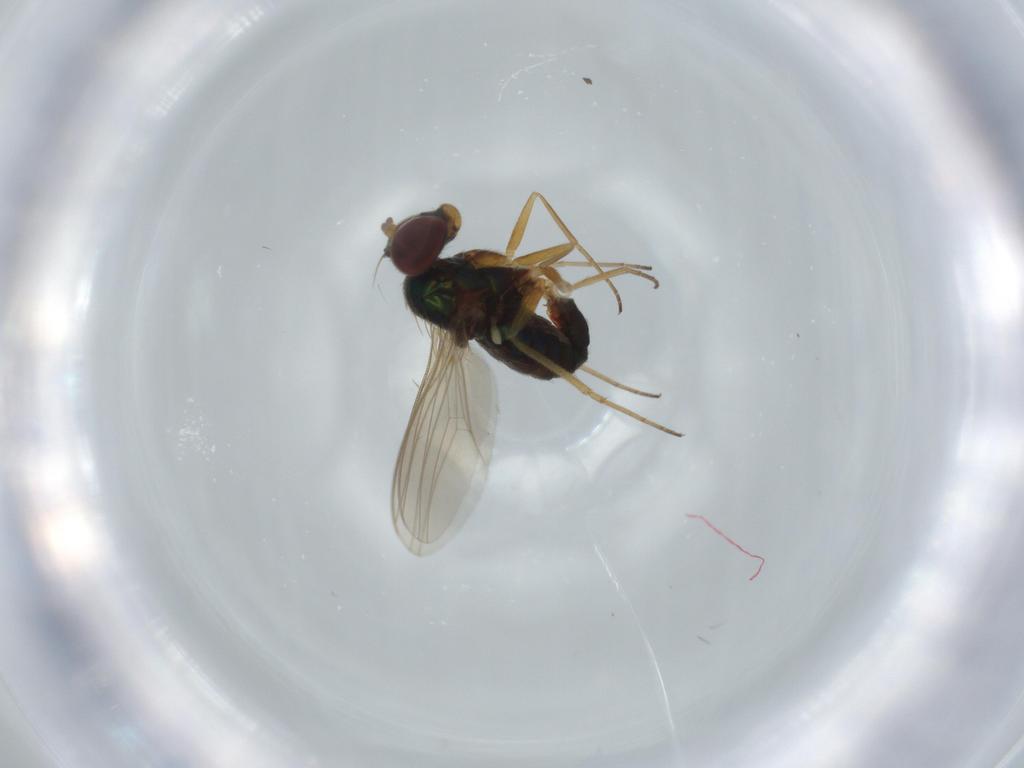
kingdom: Animalia
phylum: Arthropoda
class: Insecta
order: Diptera
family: Dolichopodidae
